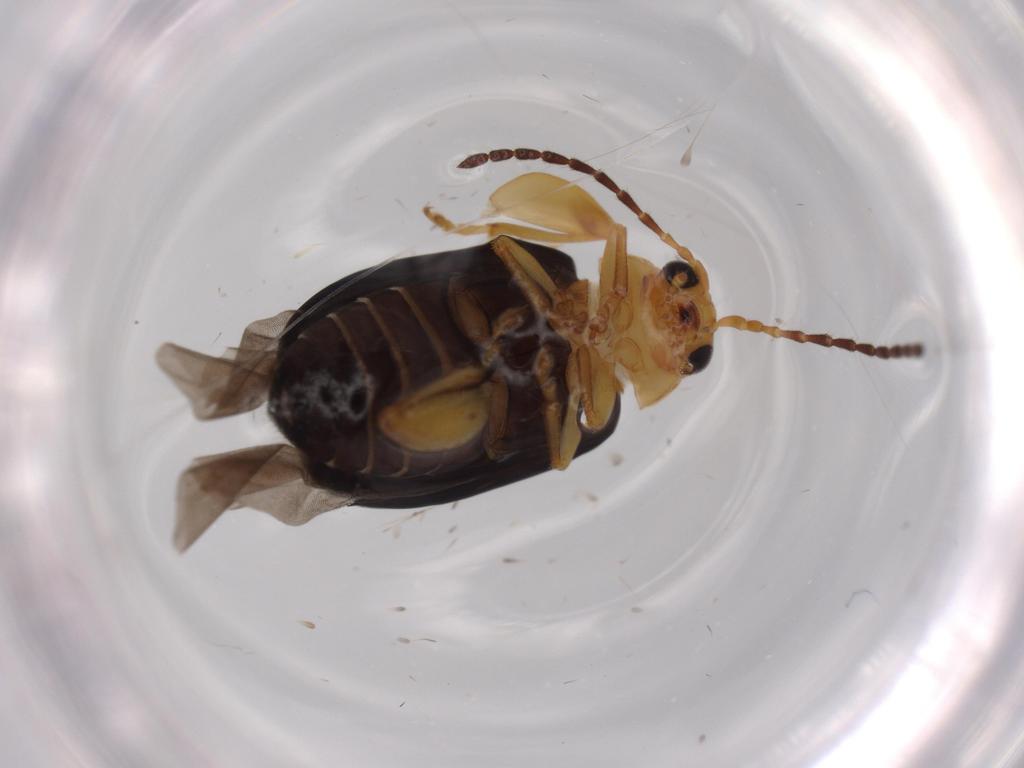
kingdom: Animalia
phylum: Arthropoda
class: Insecta
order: Coleoptera
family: Chrysomelidae
